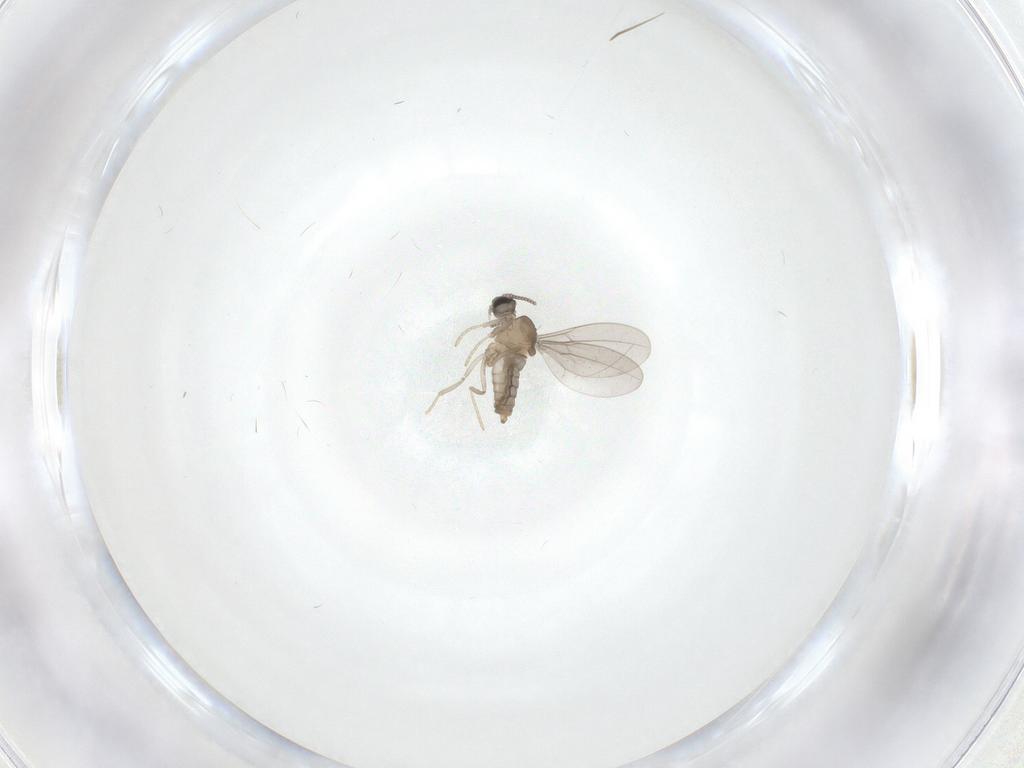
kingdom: Animalia
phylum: Arthropoda
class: Insecta
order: Diptera
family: Cecidomyiidae
